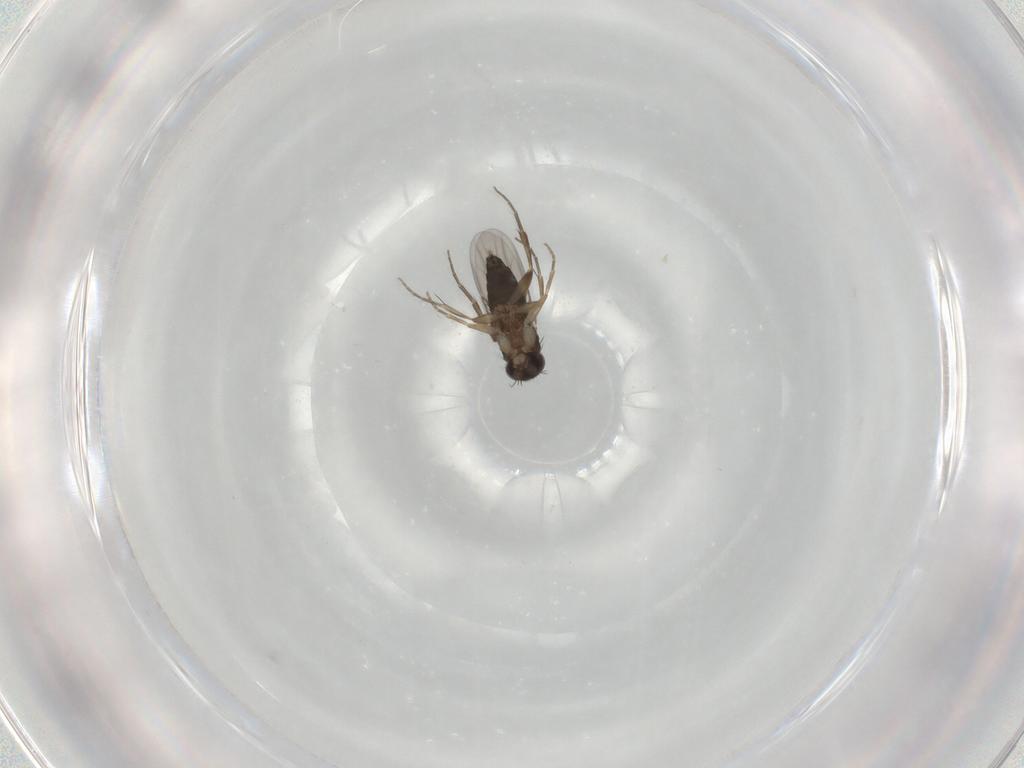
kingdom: Animalia
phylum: Arthropoda
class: Insecta
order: Diptera
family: Phoridae
